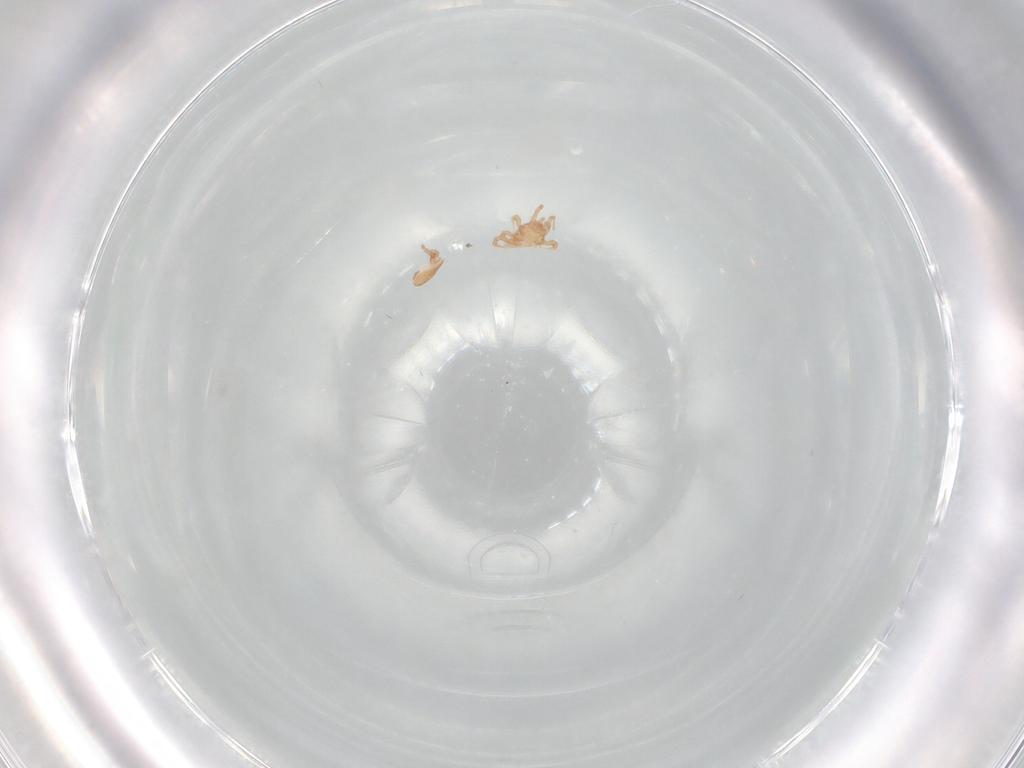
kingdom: Animalia
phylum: Arthropoda
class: Arachnida
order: Mesostigmata
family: Ascidae
